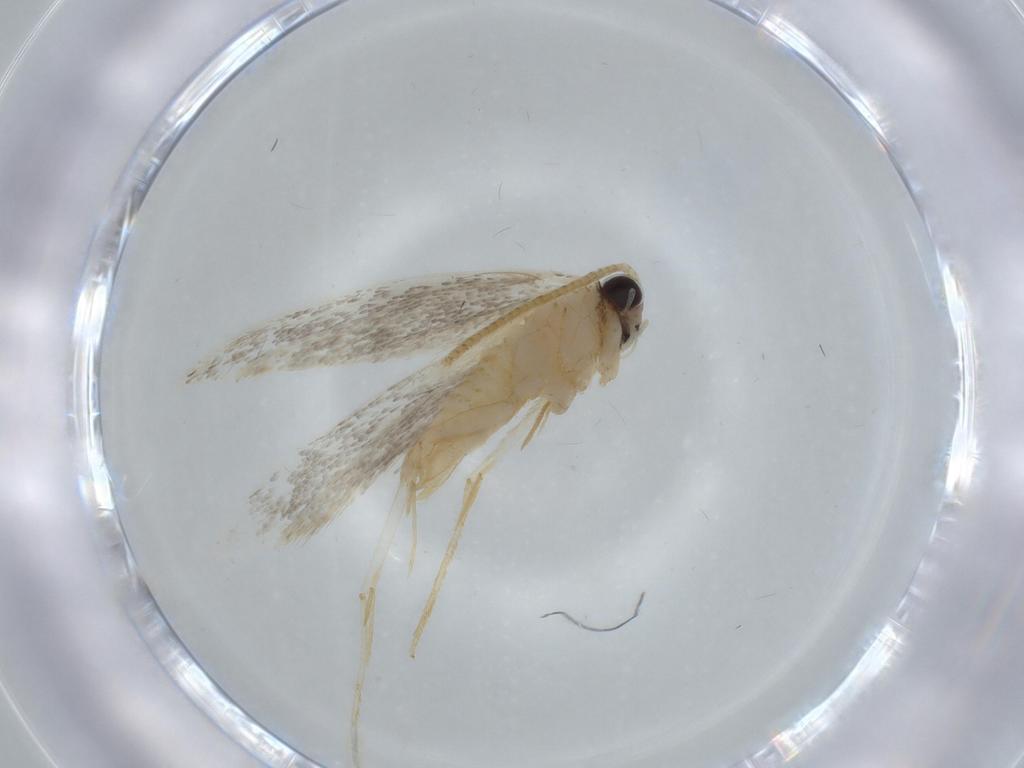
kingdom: Animalia
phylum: Arthropoda
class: Insecta
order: Lepidoptera
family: Tineidae
